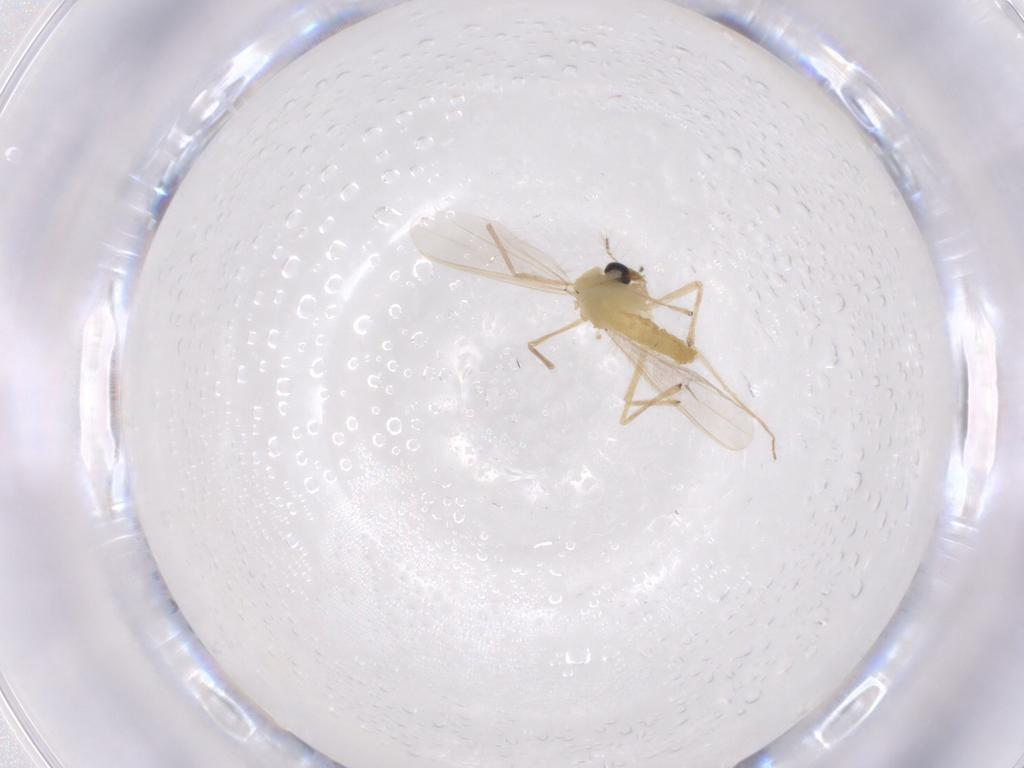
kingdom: Animalia
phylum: Arthropoda
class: Insecta
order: Diptera
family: Chironomidae
